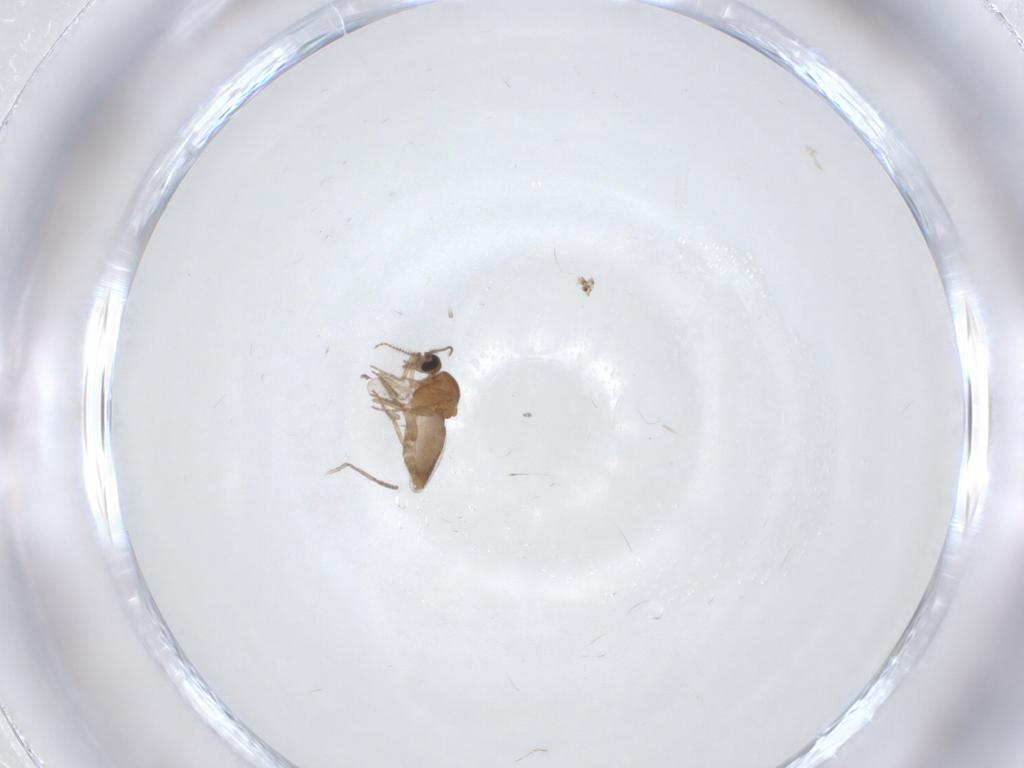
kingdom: Animalia
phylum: Arthropoda
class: Insecta
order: Diptera
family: Ceratopogonidae
